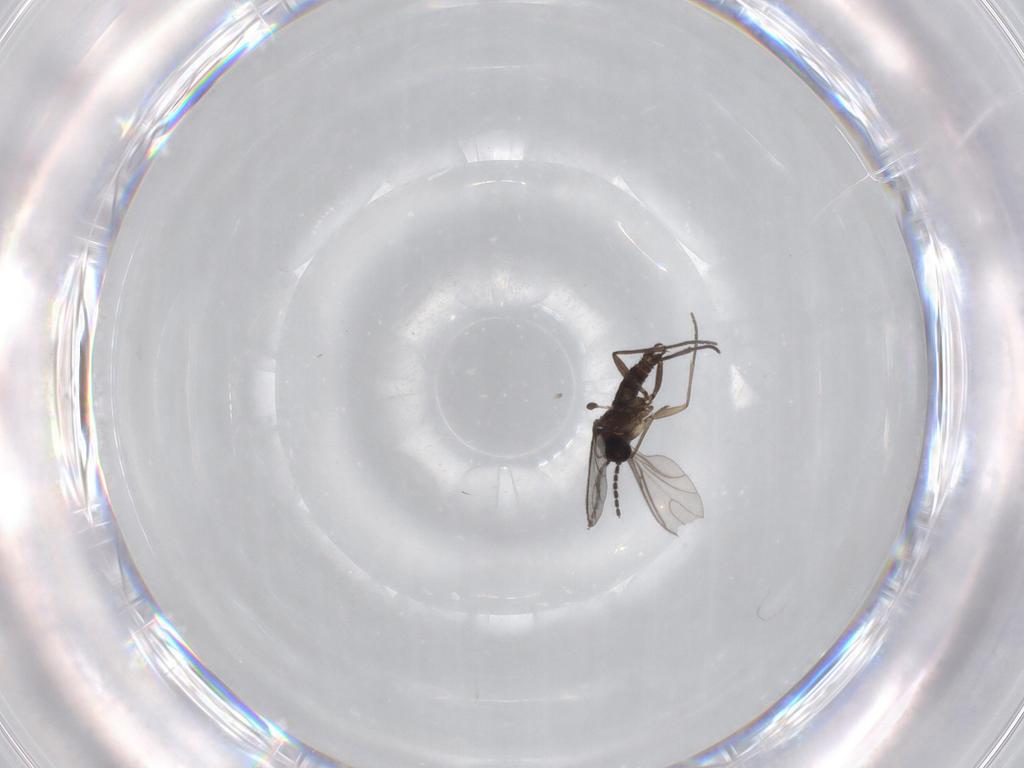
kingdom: Animalia
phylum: Arthropoda
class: Insecta
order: Diptera
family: Sciaridae
